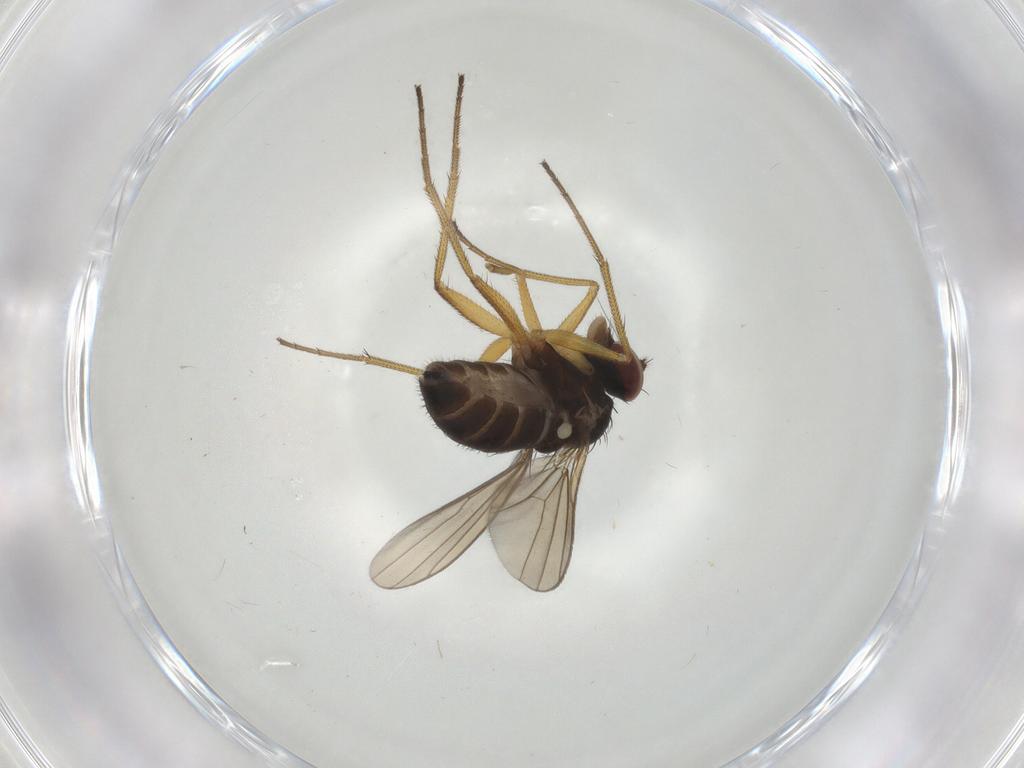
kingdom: Animalia
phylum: Arthropoda
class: Insecta
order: Diptera
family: Dolichopodidae
